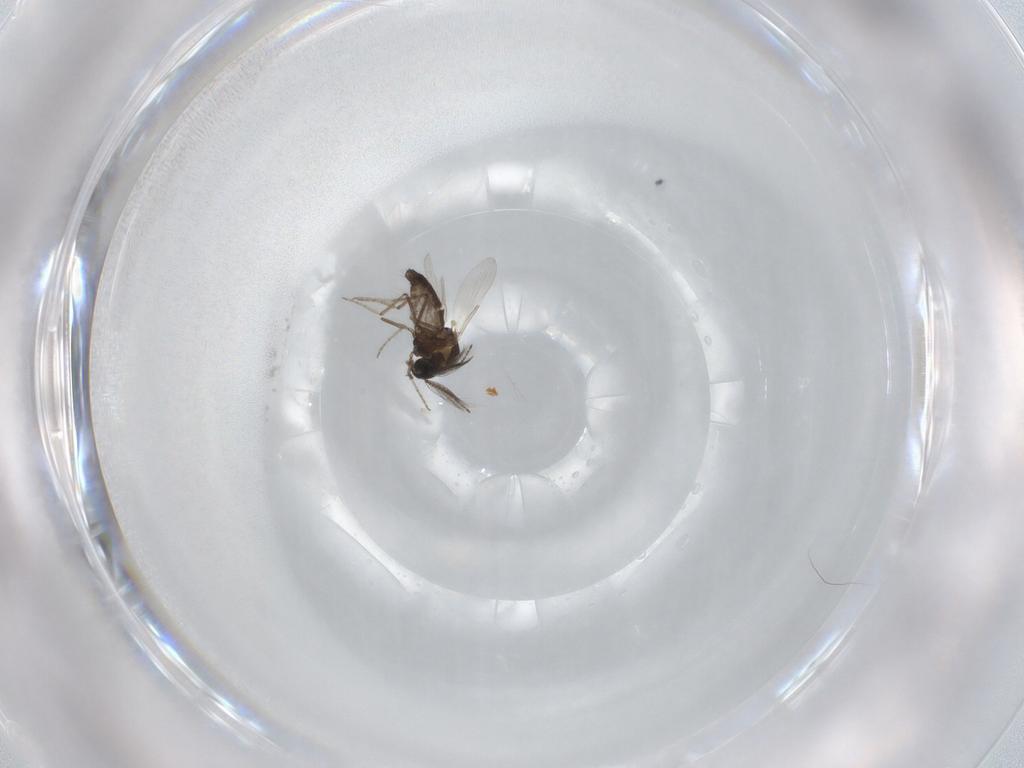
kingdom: Animalia
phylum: Arthropoda
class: Insecta
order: Diptera
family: Ceratopogonidae
